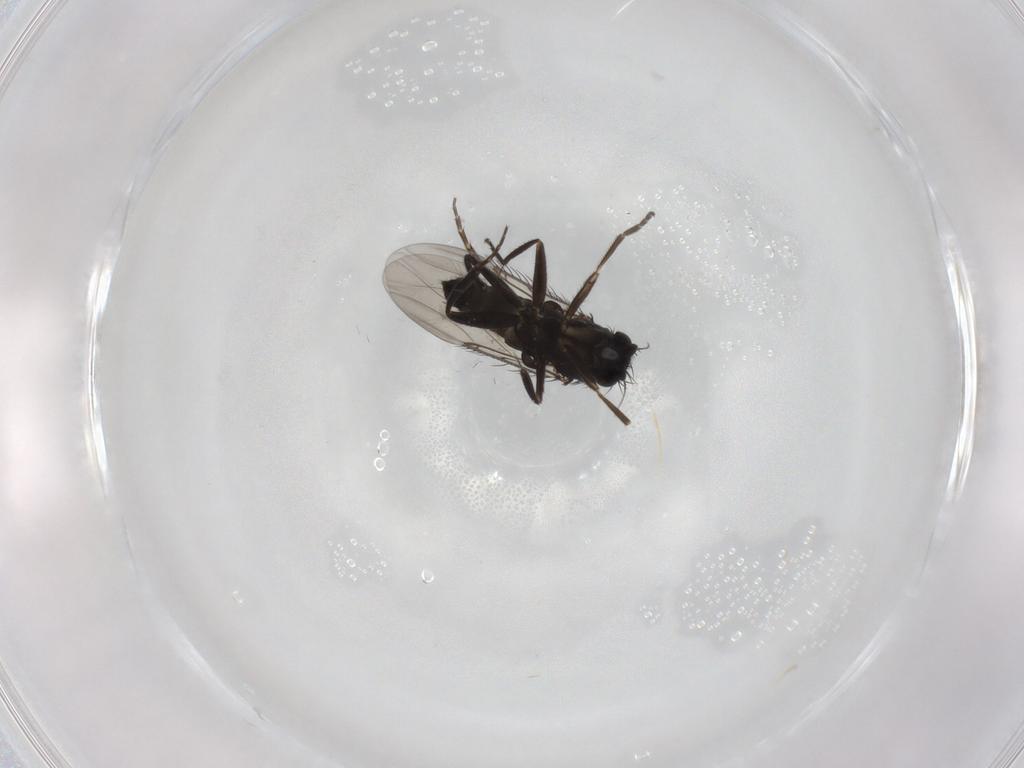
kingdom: Animalia
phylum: Arthropoda
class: Insecta
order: Diptera
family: Phoridae
